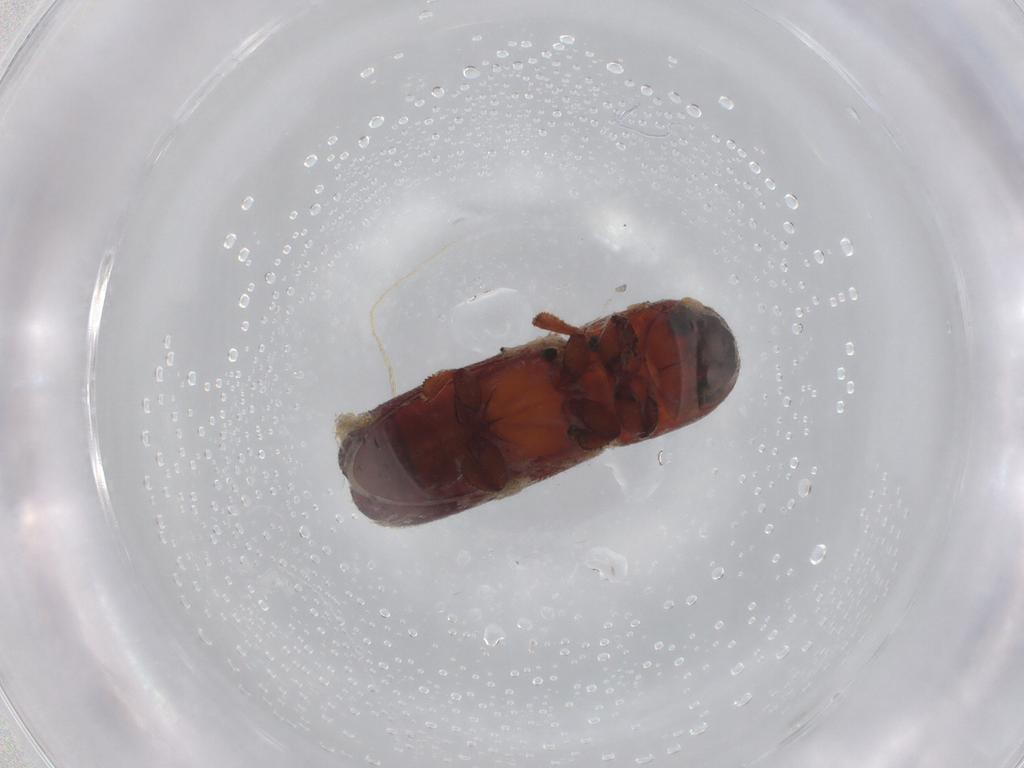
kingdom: Animalia
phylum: Arthropoda
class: Insecta
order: Coleoptera
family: Curculionidae
